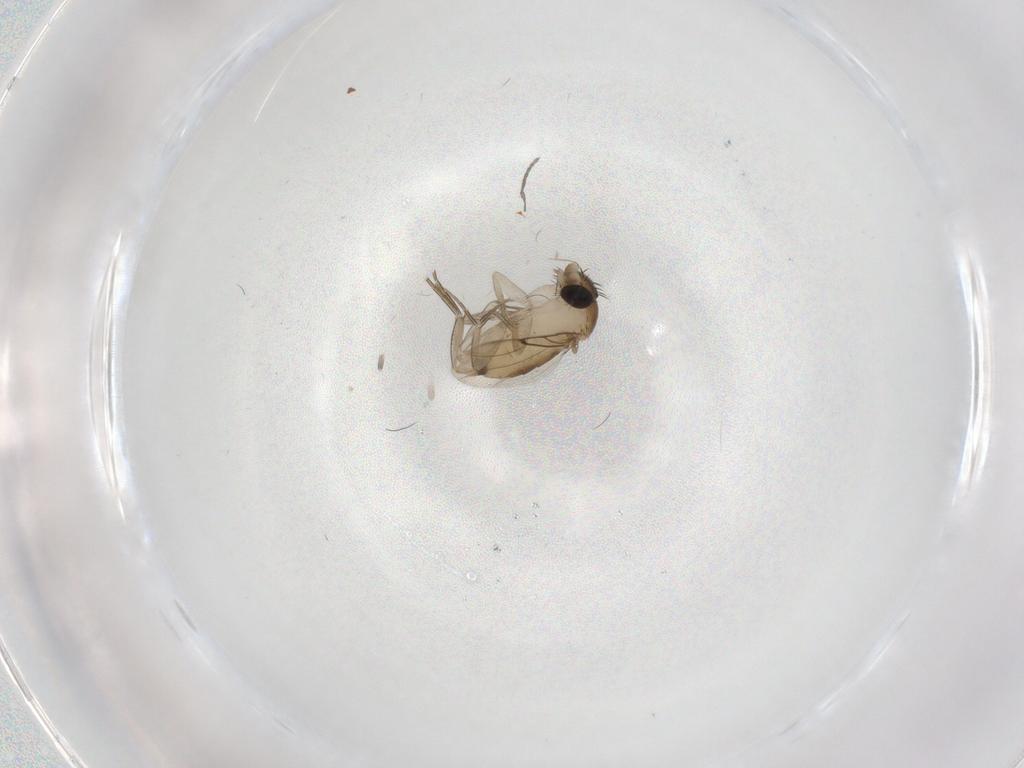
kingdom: Animalia
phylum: Arthropoda
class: Insecta
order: Diptera
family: Phoridae
